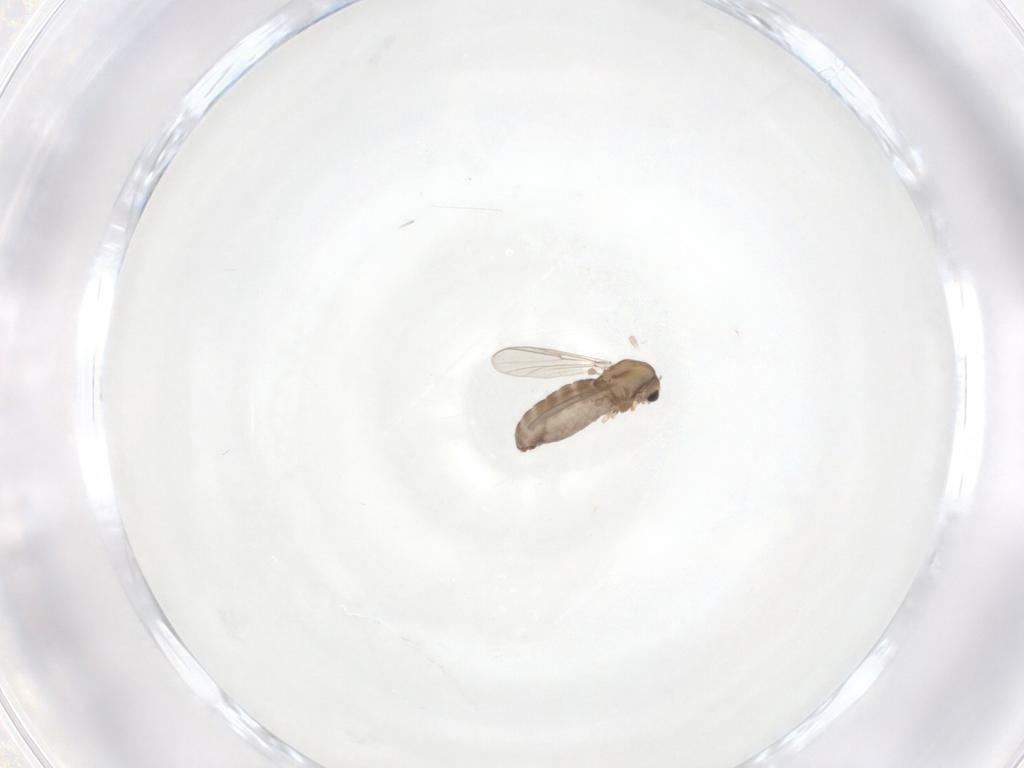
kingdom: Animalia
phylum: Arthropoda
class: Insecta
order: Diptera
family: Chironomidae
